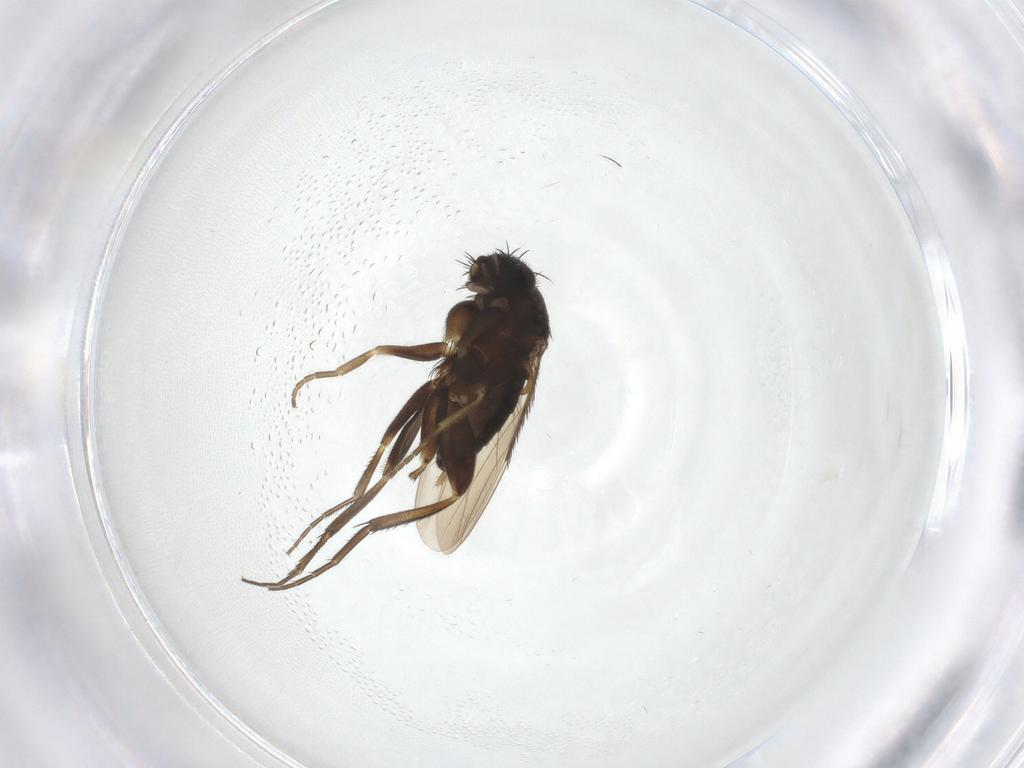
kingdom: Animalia
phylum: Arthropoda
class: Insecta
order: Diptera
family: Phoridae
